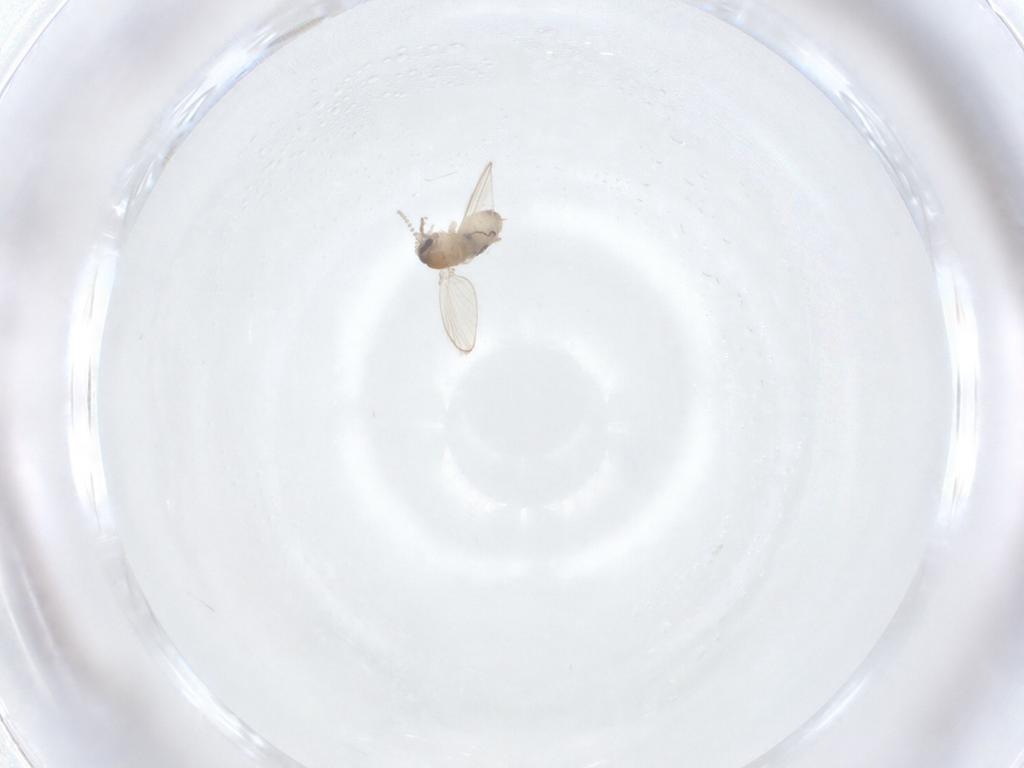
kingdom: Animalia
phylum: Arthropoda
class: Insecta
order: Diptera
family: Psychodidae
